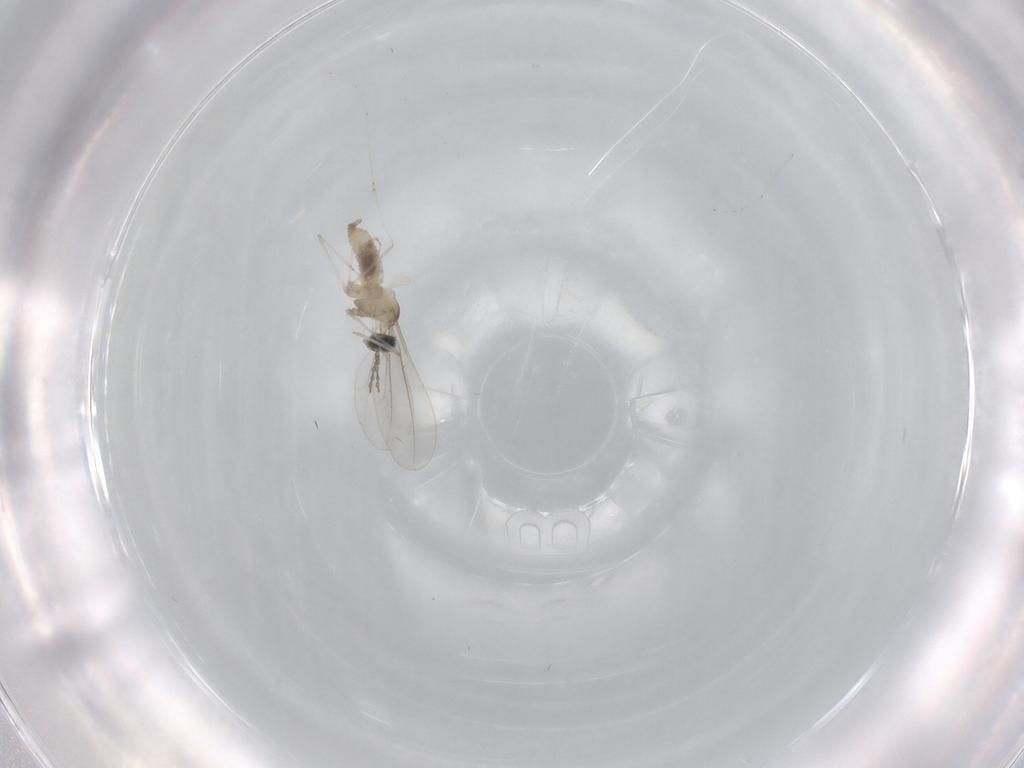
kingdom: Animalia
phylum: Arthropoda
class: Insecta
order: Diptera
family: Cecidomyiidae
